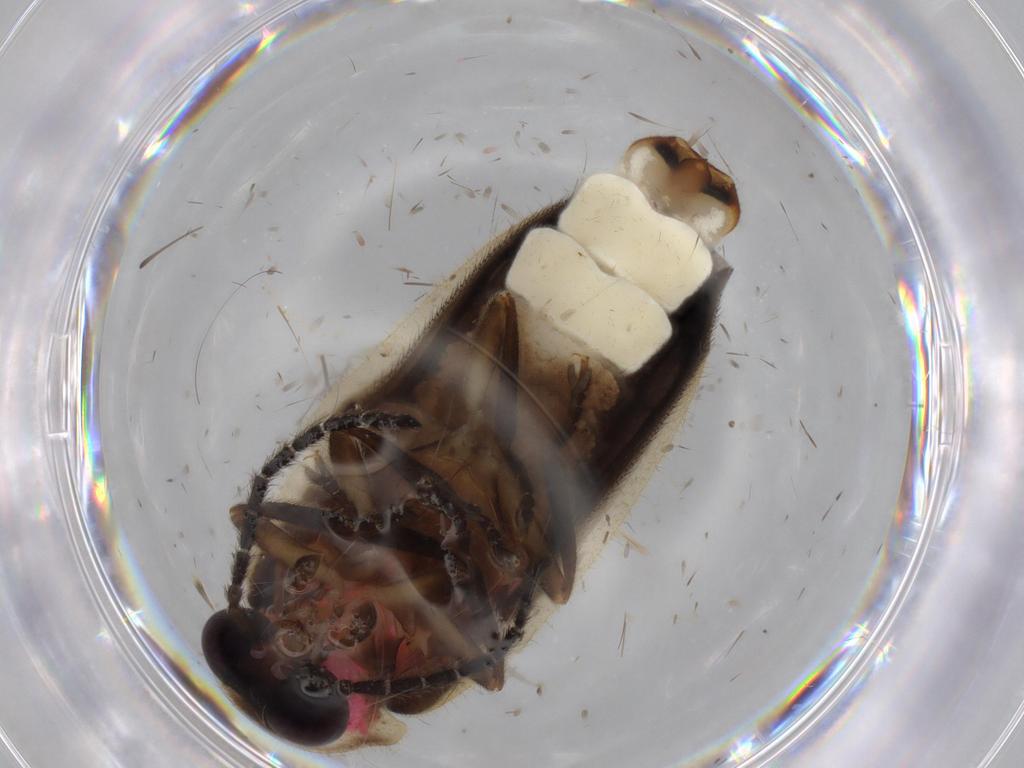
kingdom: Animalia
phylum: Arthropoda
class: Insecta
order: Coleoptera
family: Lampyridae
